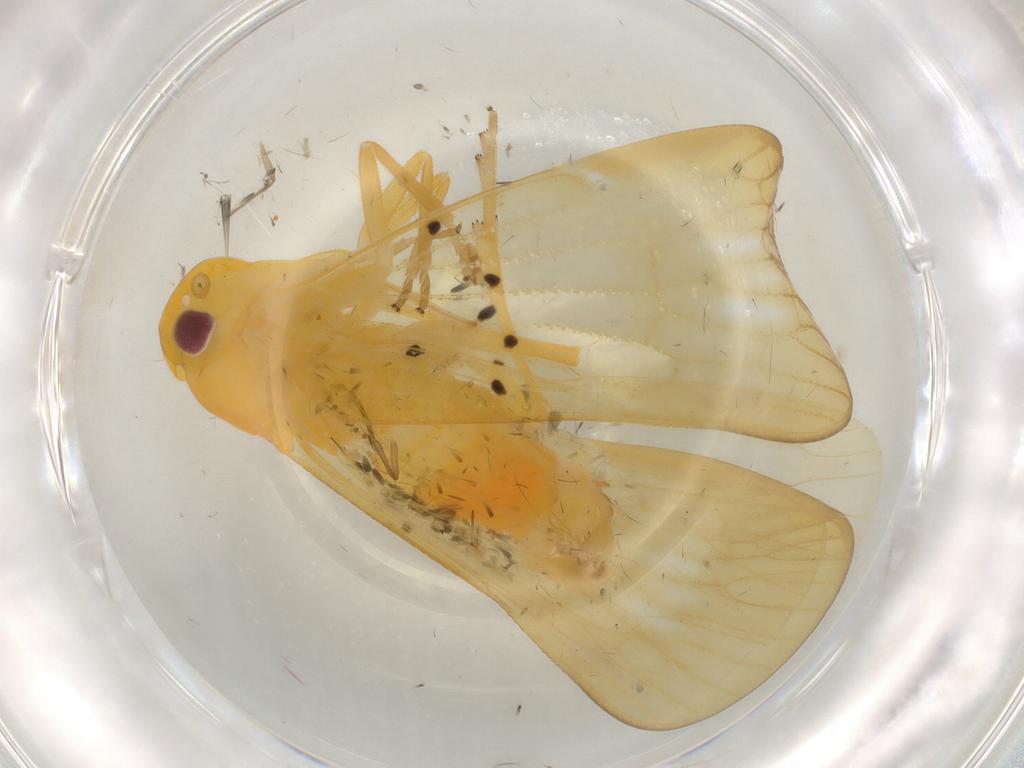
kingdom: Animalia
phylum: Arthropoda
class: Insecta
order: Hemiptera
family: Cixiidae
